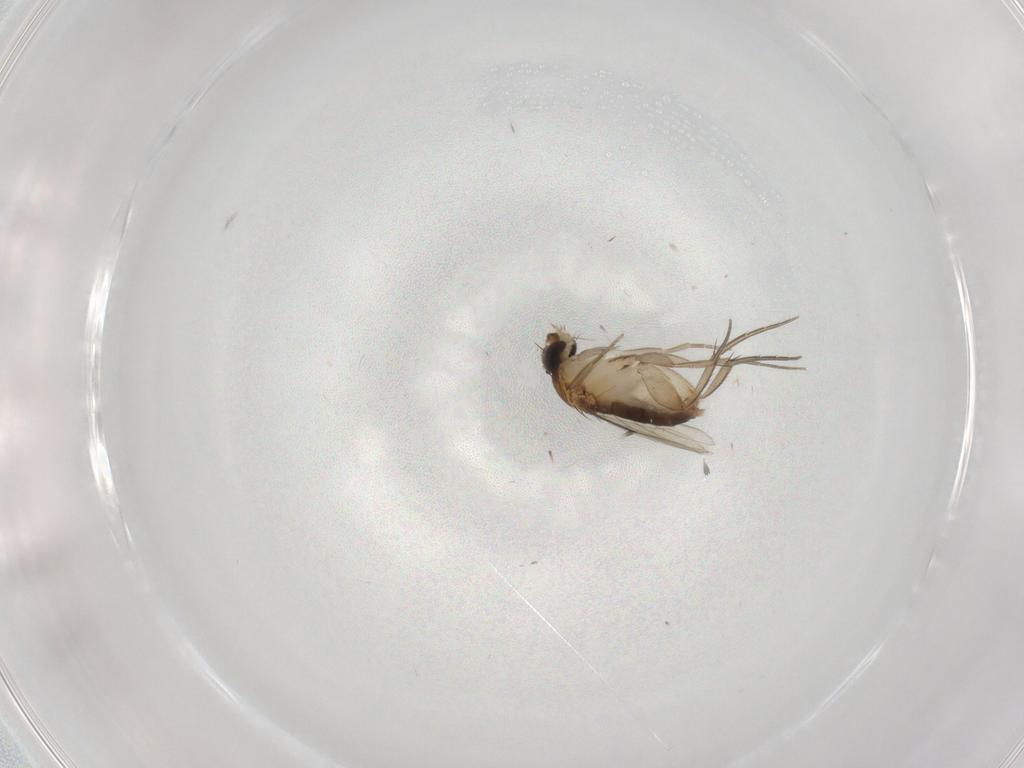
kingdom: Animalia
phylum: Arthropoda
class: Insecta
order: Diptera
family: Phoridae
